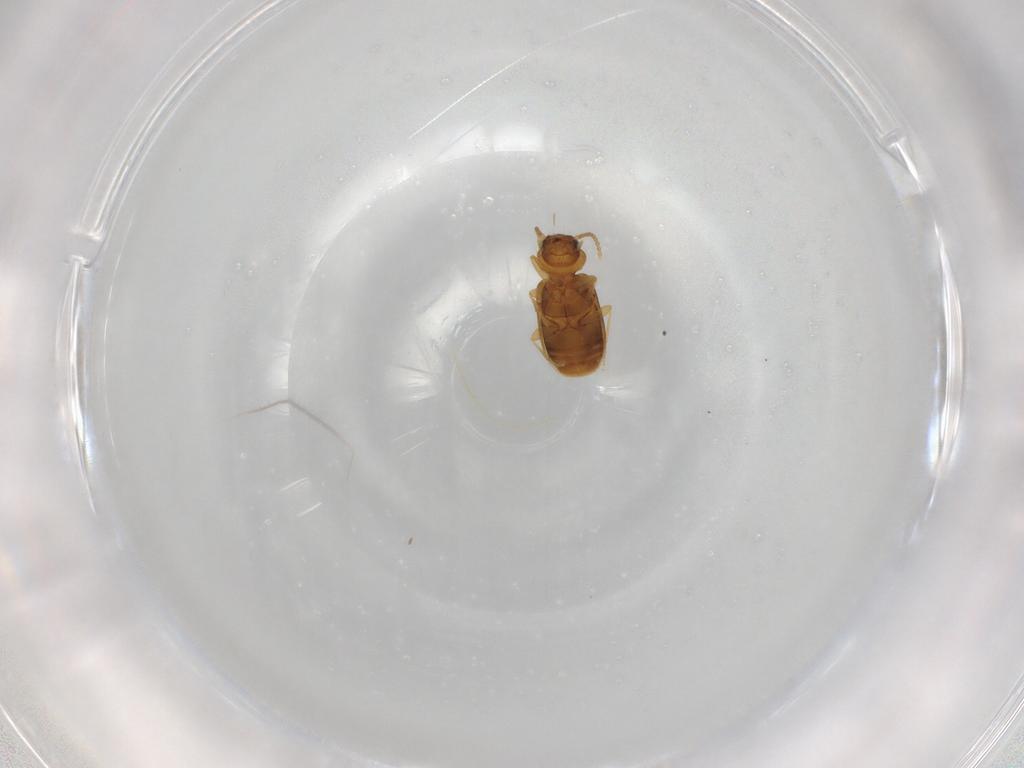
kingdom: Animalia
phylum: Arthropoda
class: Insecta
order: Coleoptera
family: Carabidae
